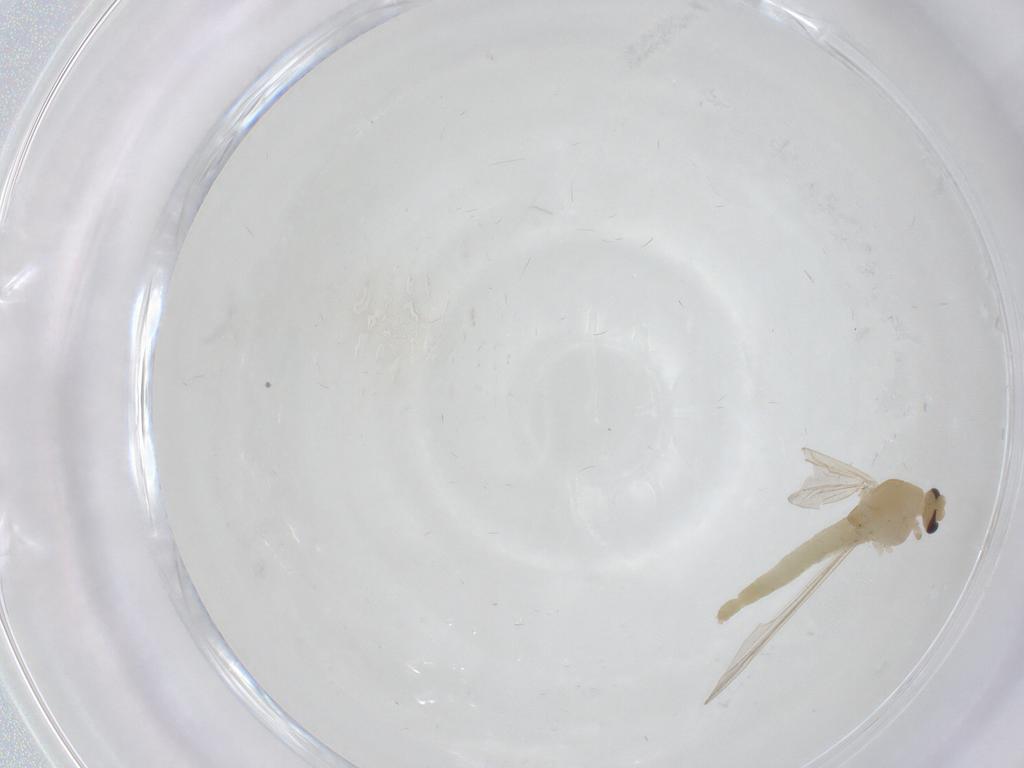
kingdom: Animalia
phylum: Arthropoda
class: Insecta
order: Diptera
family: Chironomidae
